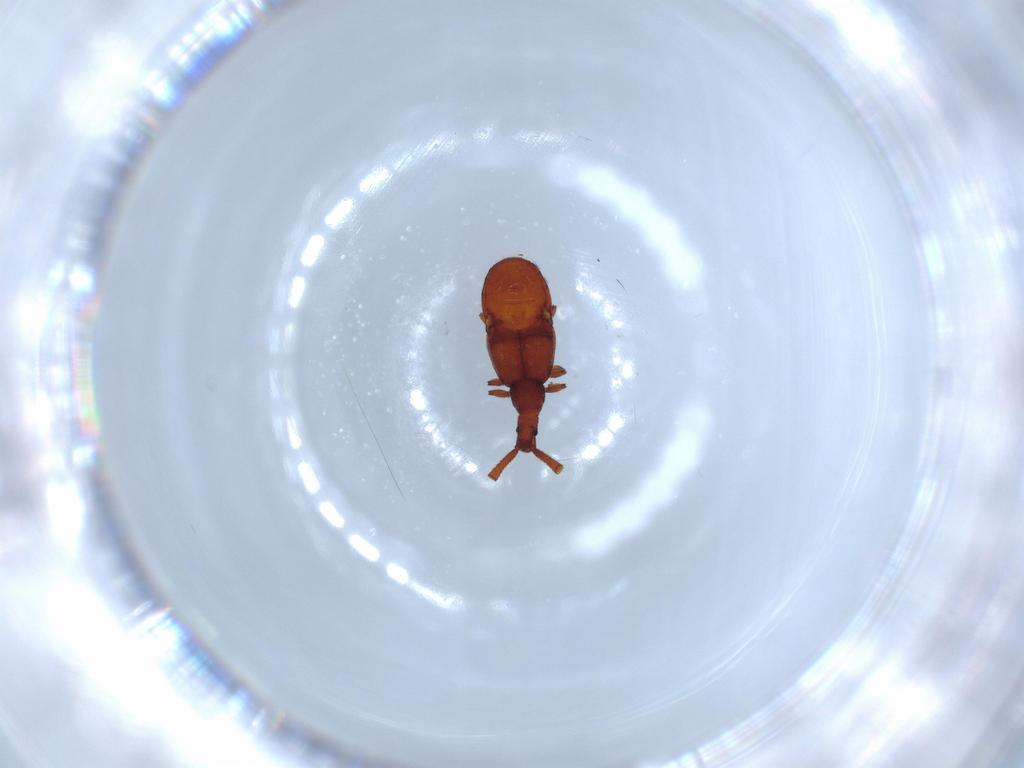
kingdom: Animalia
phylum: Arthropoda
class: Insecta
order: Coleoptera
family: Staphylinidae
